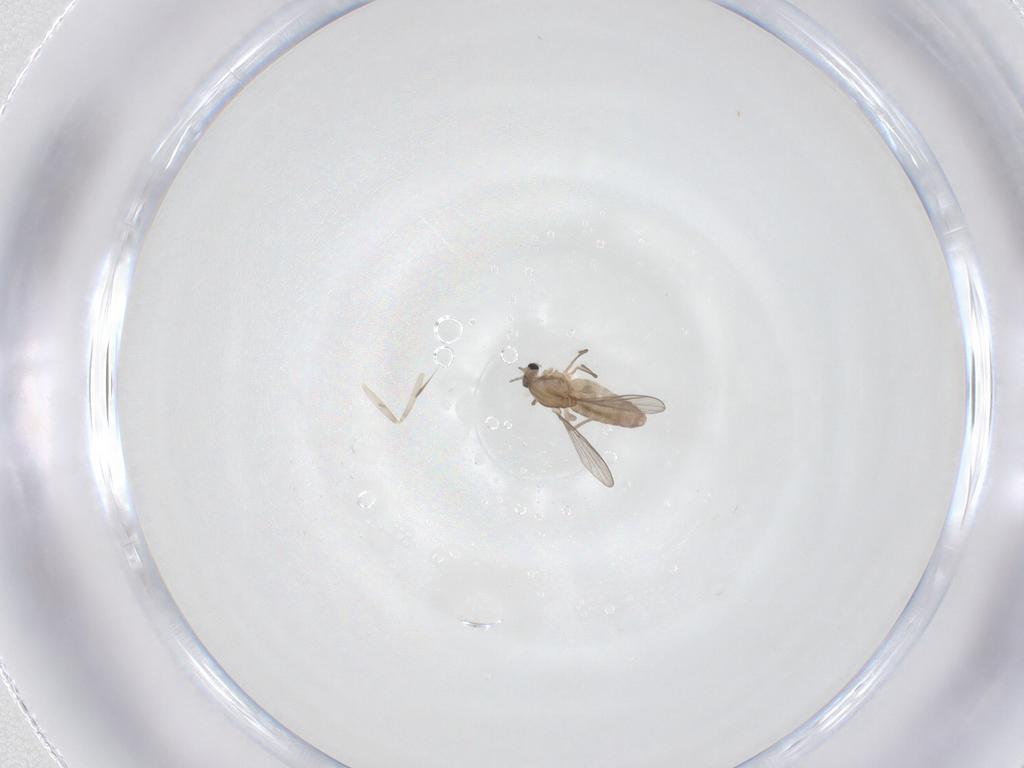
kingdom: Animalia
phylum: Arthropoda
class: Insecta
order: Diptera
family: Chironomidae
